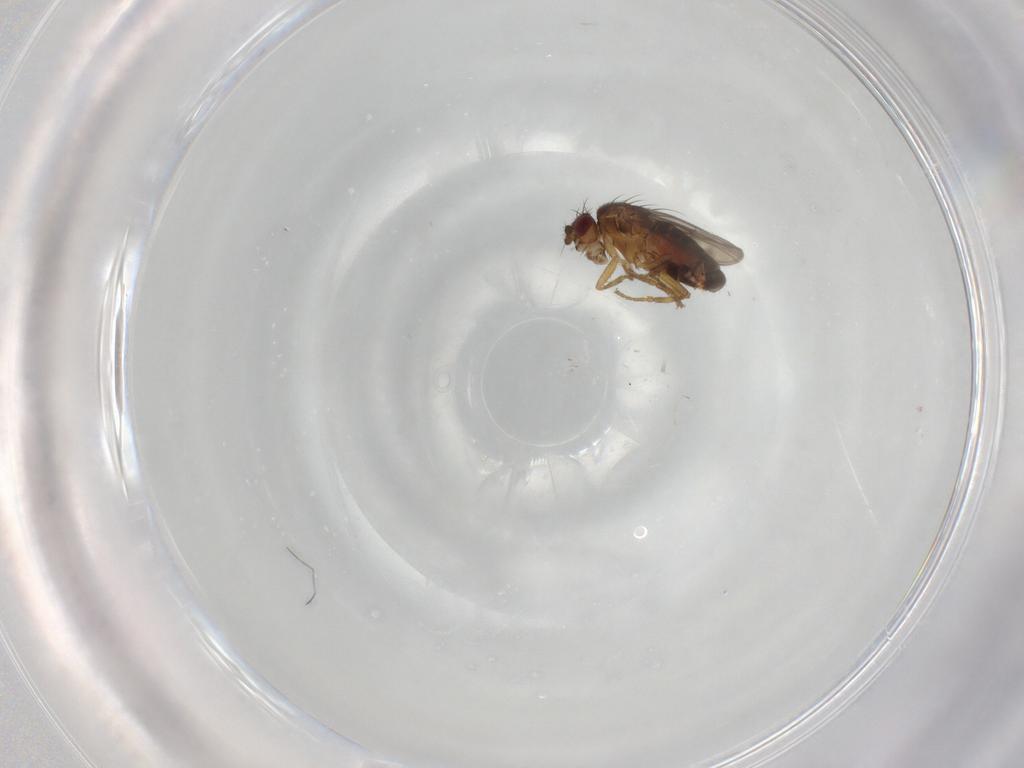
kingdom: Animalia
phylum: Arthropoda
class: Insecta
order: Diptera
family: Sphaeroceridae
